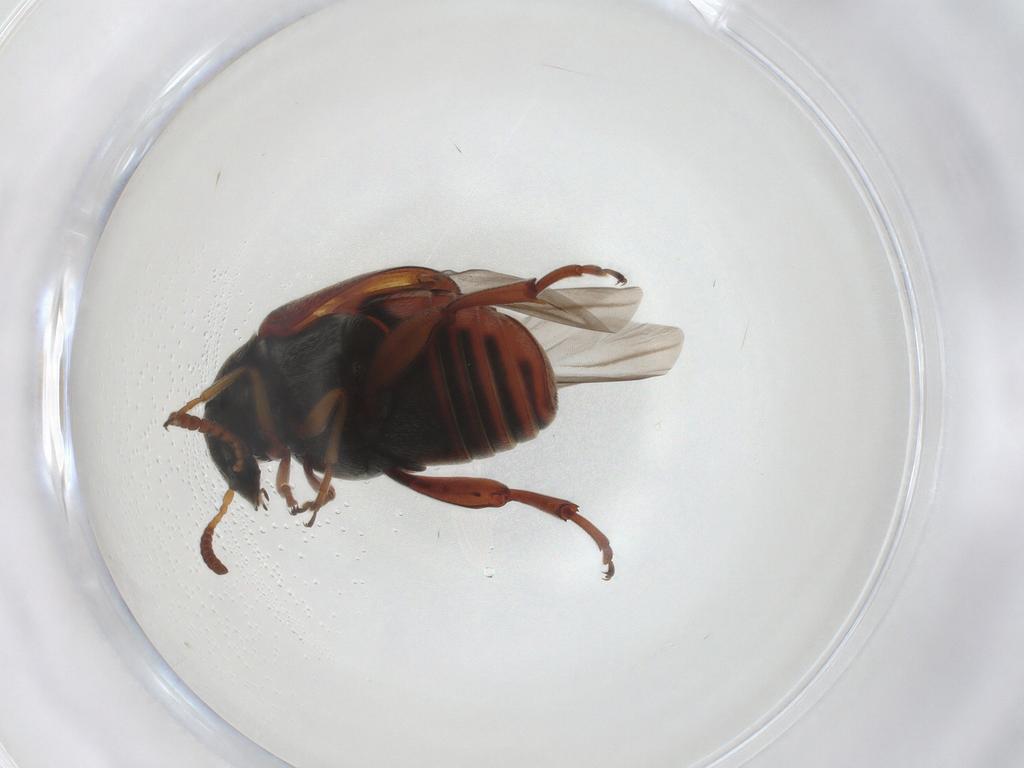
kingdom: Animalia
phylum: Arthropoda
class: Insecta
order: Coleoptera
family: Chrysomelidae
